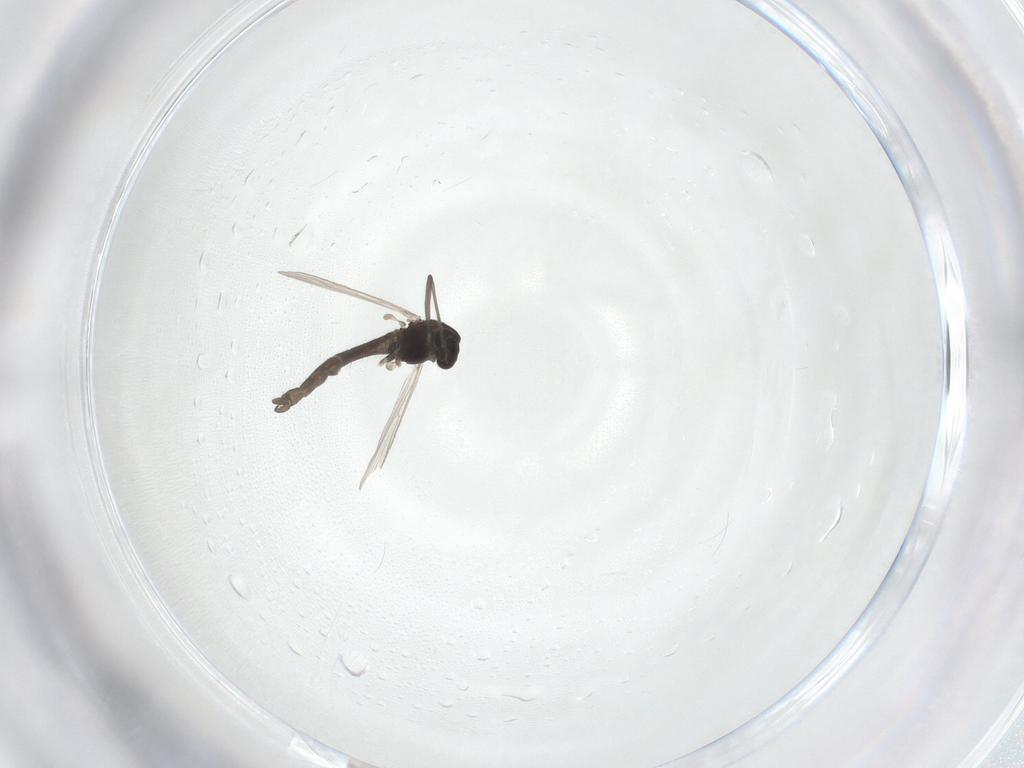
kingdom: Animalia
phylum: Arthropoda
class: Insecta
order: Diptera
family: Chironomidae
